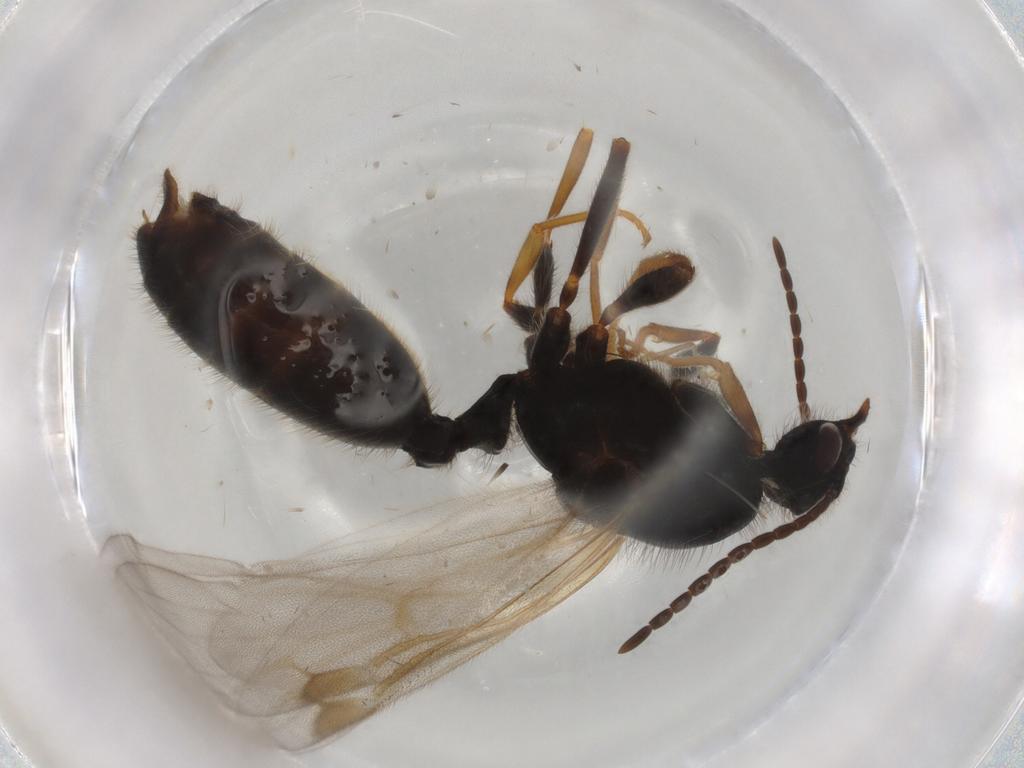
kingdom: Animalia
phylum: Arthropoda
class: Insecta
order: Hymenoptera
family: Formicidae
